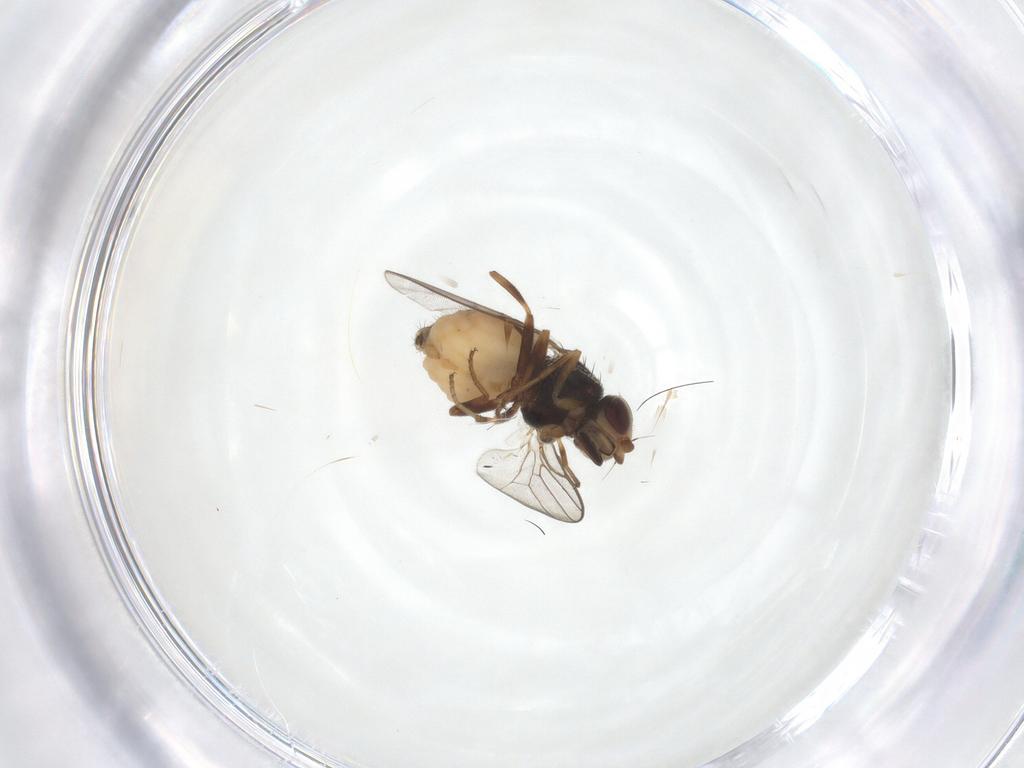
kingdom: Animalia
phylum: Arthropoda
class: Insecta
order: Diptera
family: Chloropidae
